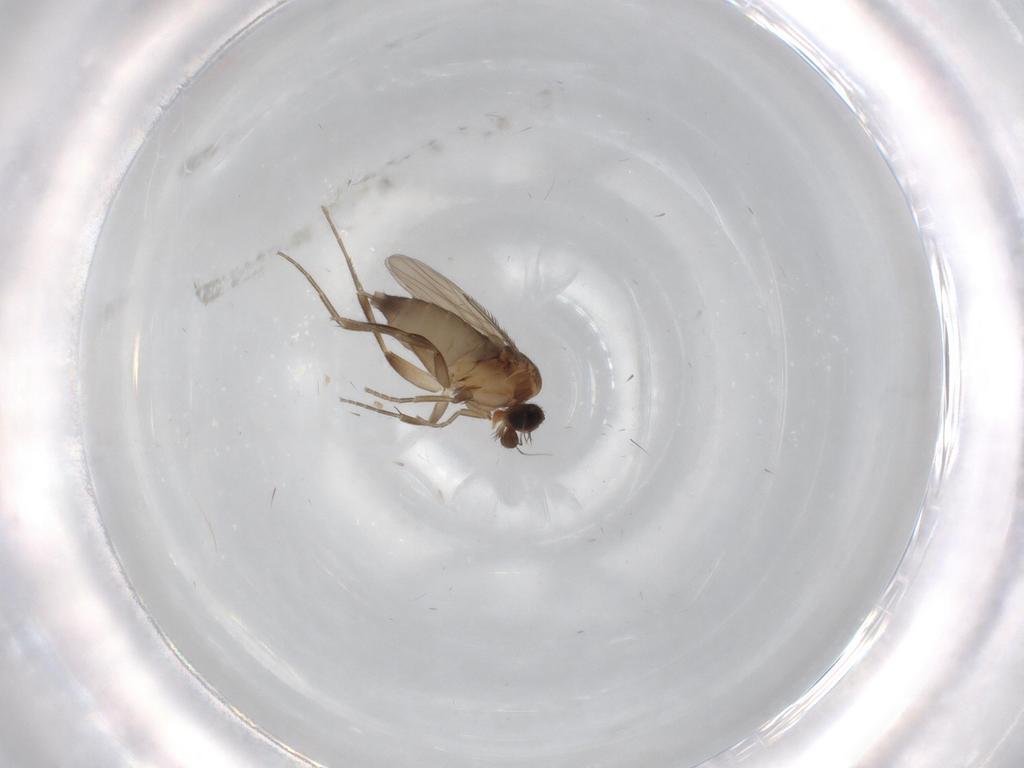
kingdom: Animalia
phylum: Arthropoda
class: Insecta
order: Diptera
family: Phoridae
